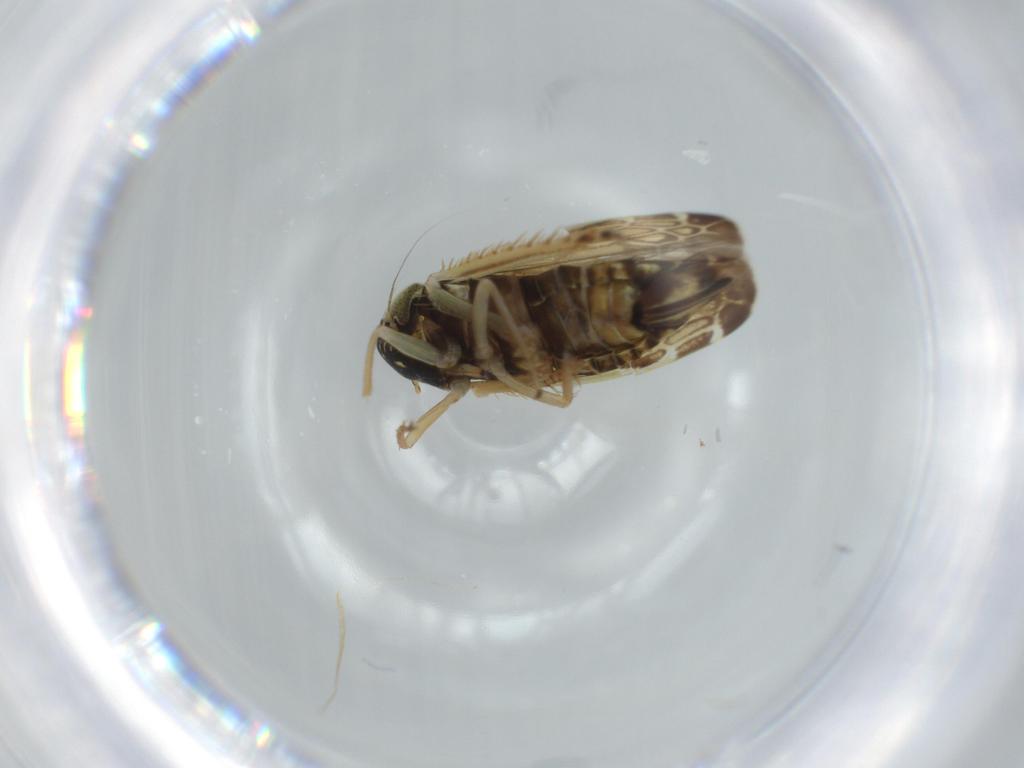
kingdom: Animalia
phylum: Arthropoda
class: Insecta
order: Hemiptera
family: Cicadellidae
